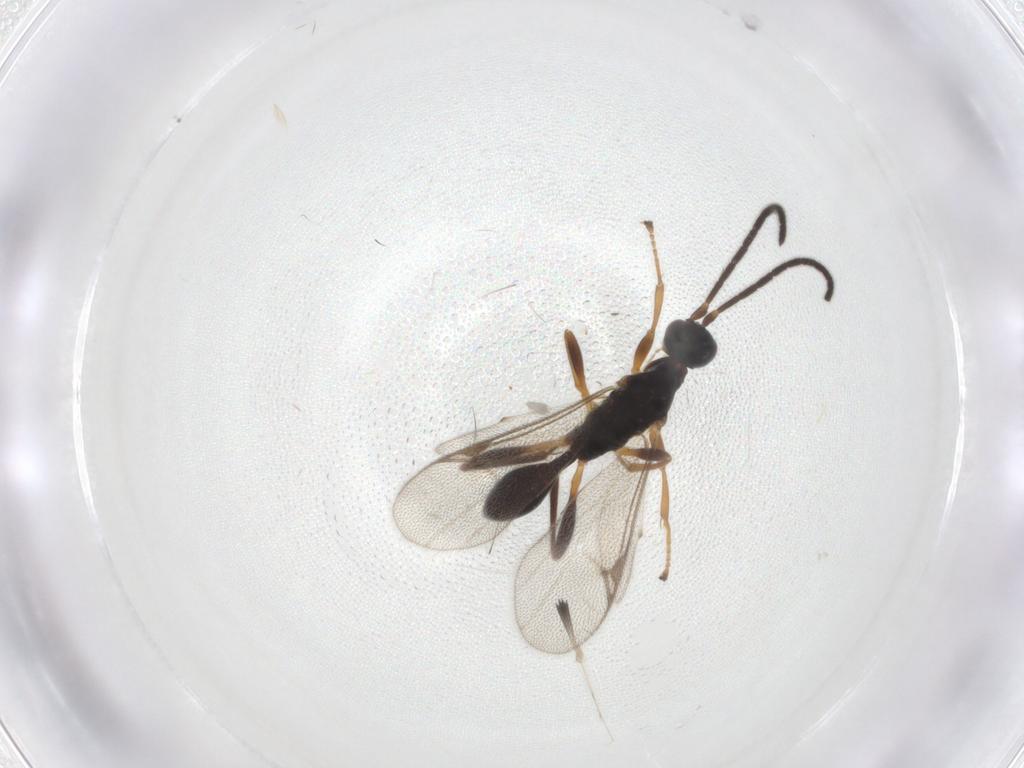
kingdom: Animalia
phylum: Arthropoda
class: Insecta
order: Hymenoptera
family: Proctotrupidae
